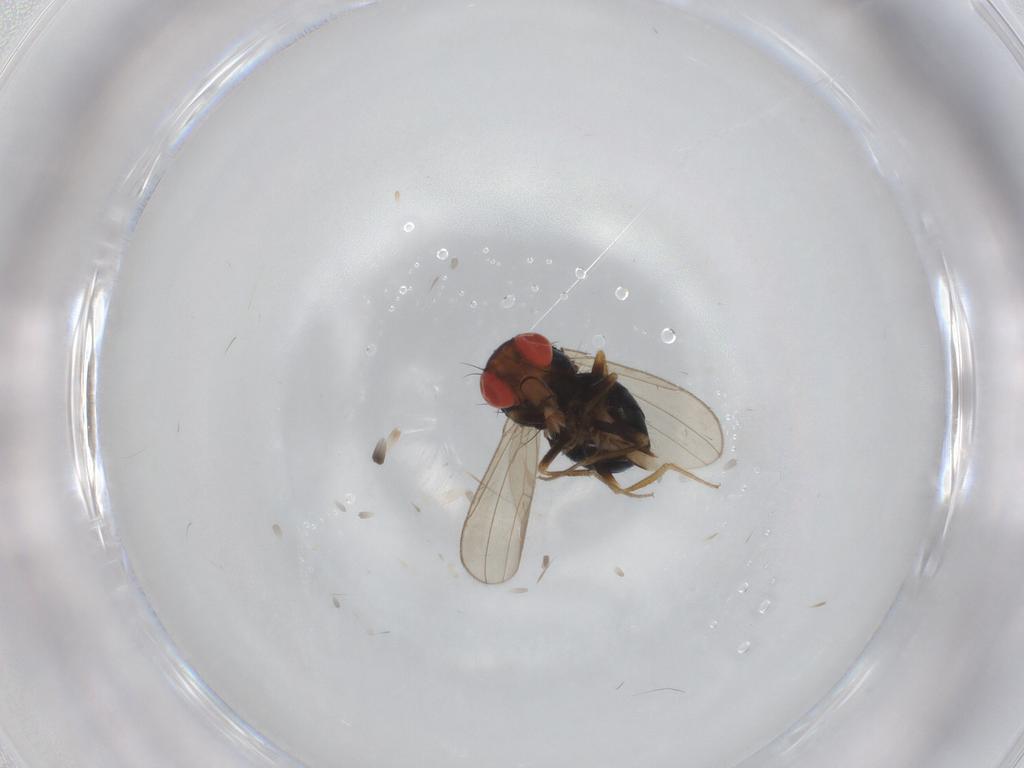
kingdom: Animalia
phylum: Arthropoda
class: Insecta
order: Diptera
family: Drosophilidae
